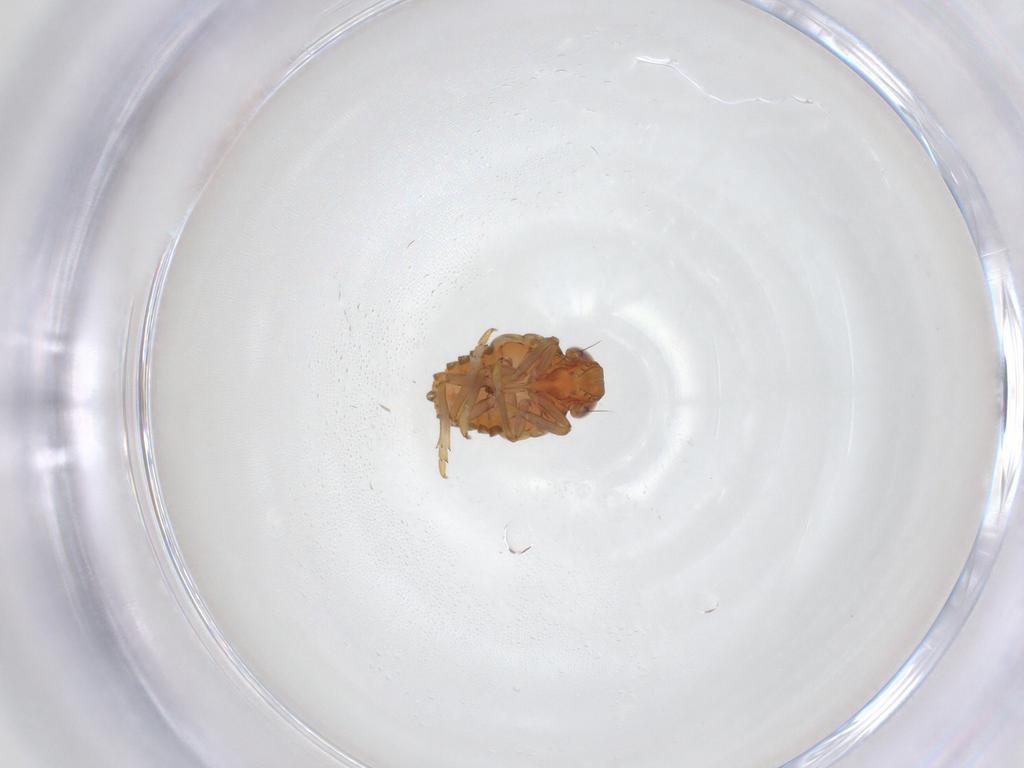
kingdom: Animalia
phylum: Arthropoda
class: Insecta
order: Hemiptera
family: Issidae
